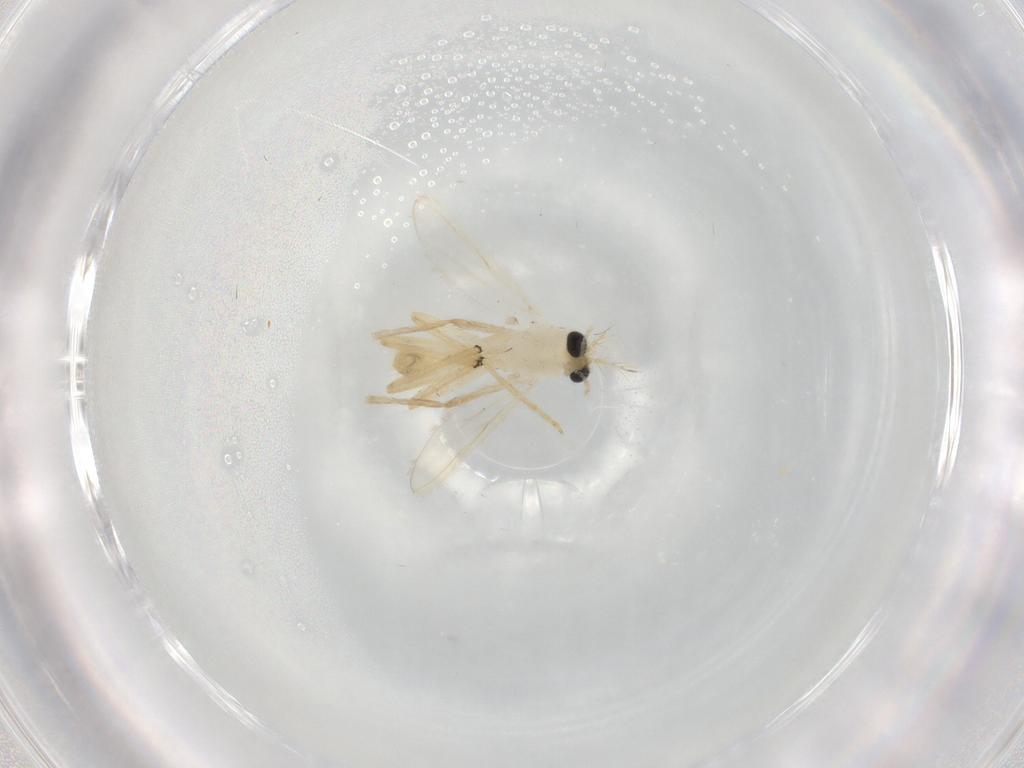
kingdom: Animalia
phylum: Arthropoda
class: Insecta
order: Diptera
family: Chironomidae
